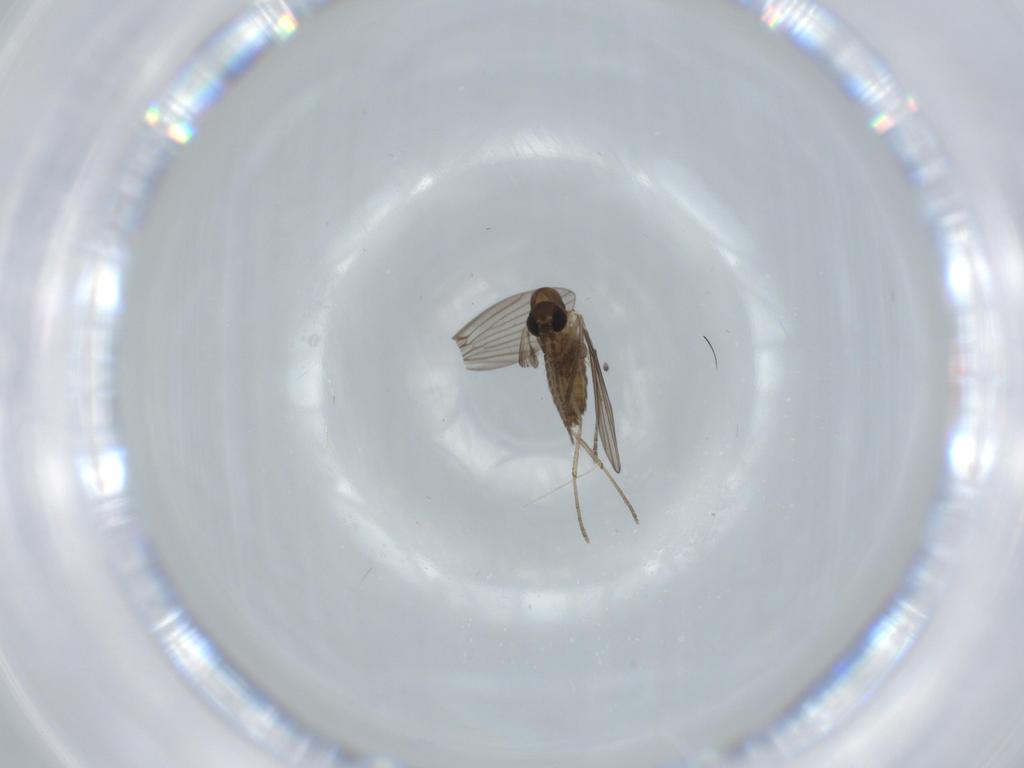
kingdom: Animalia
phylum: Arthropoda
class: Insecta
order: Diptera
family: Psychodidae
